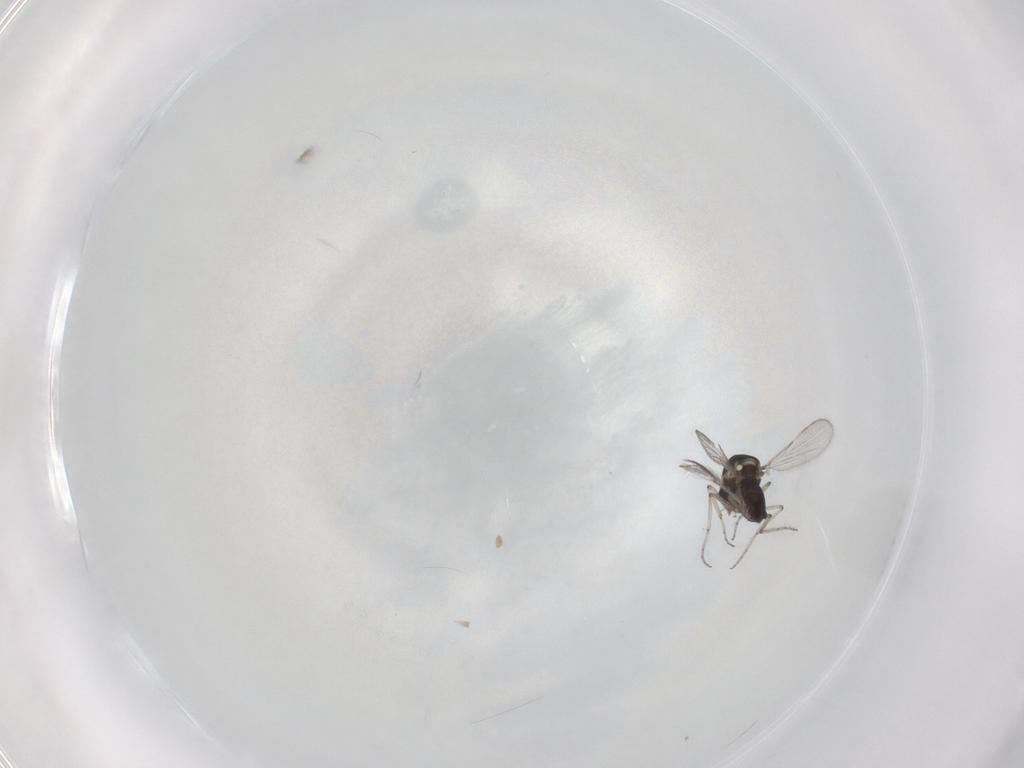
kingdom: Animalia
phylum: Arthropoda
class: Insecta
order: Diptera
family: Ceratopogonidae
